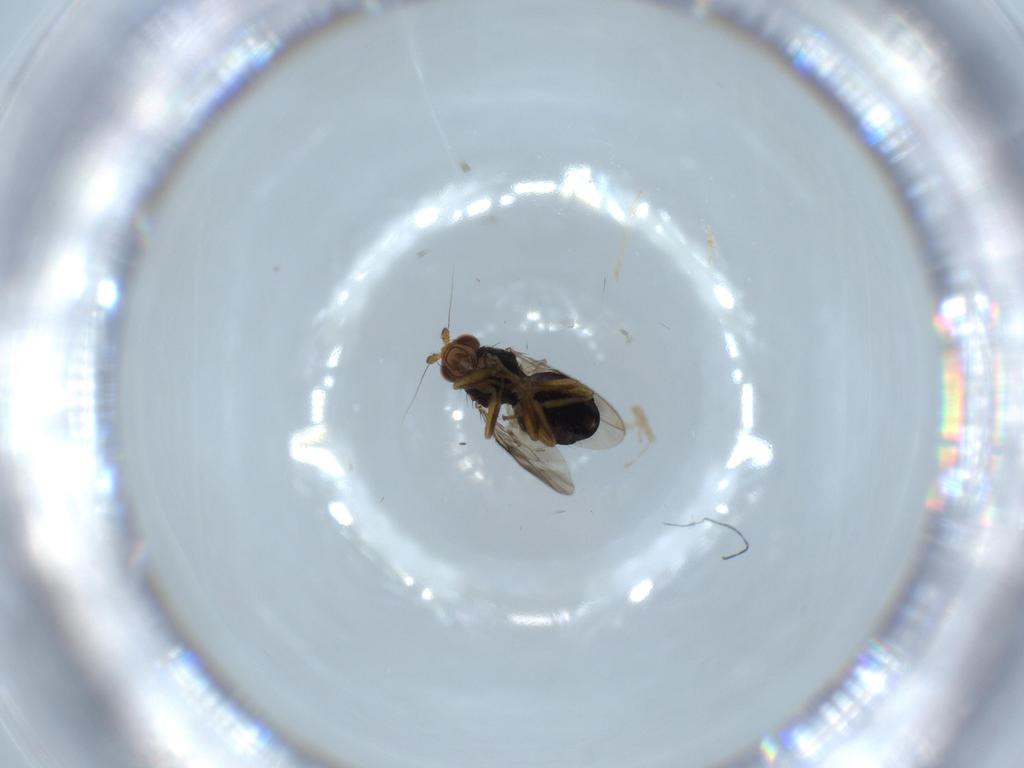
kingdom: Animalia
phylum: Arthropoda
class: Insecta
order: Diptera
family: Sphaeroceridae
